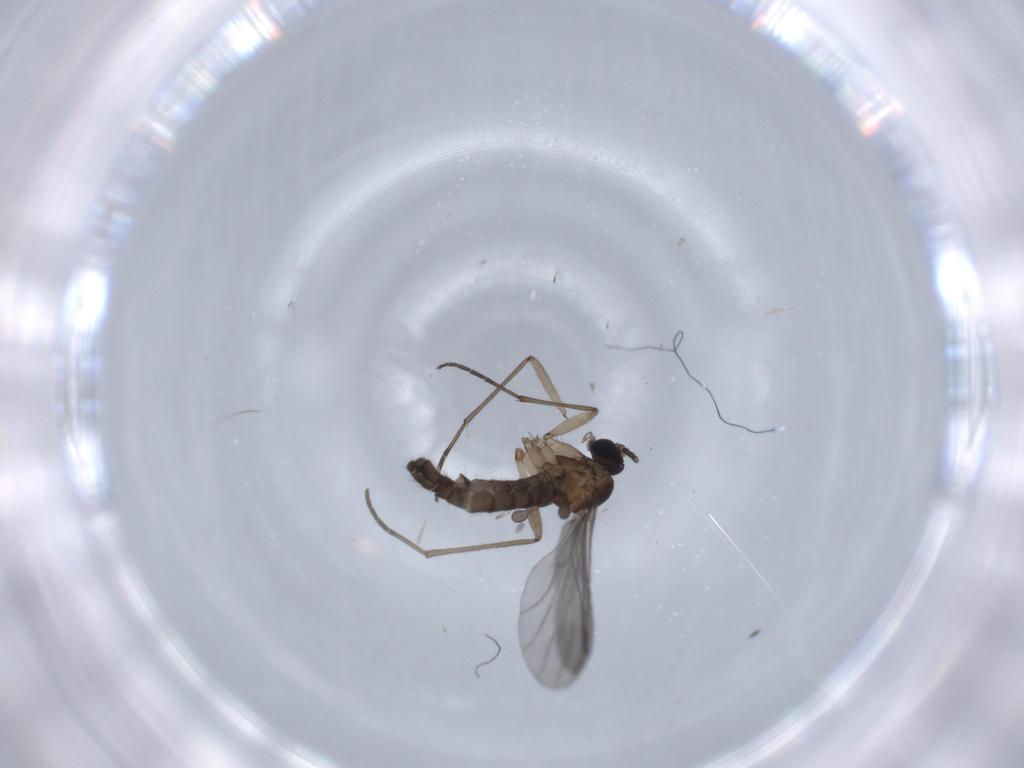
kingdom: Animalia
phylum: Arthropoda
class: Insecta
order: Diptera
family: Sciaridae
